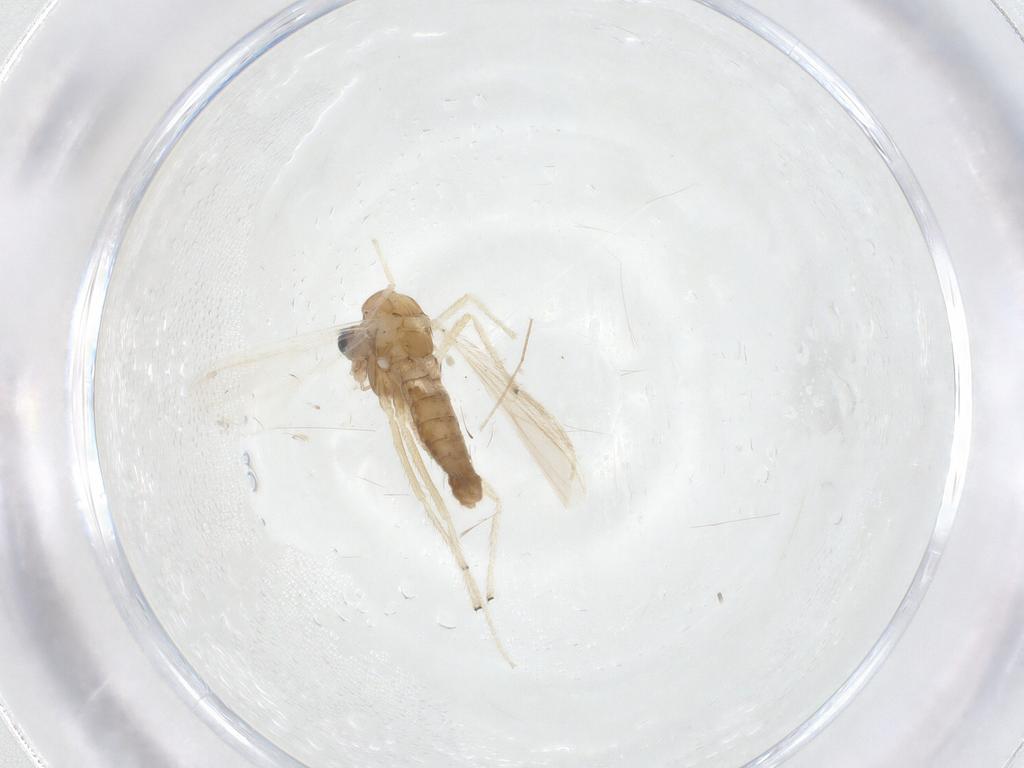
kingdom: Animalia
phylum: Arthropoda
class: Insecta
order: Diptera
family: Chironomidae
